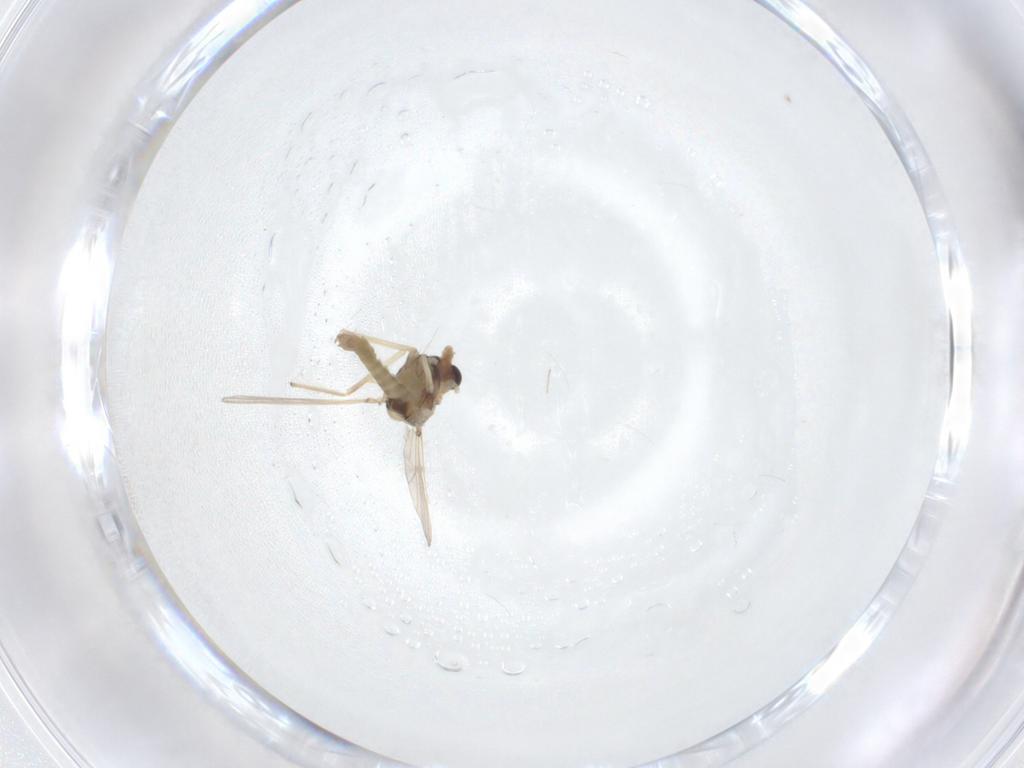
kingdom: Animalia
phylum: Arthropoda
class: Insecta
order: Diptera
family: Chironomidae
